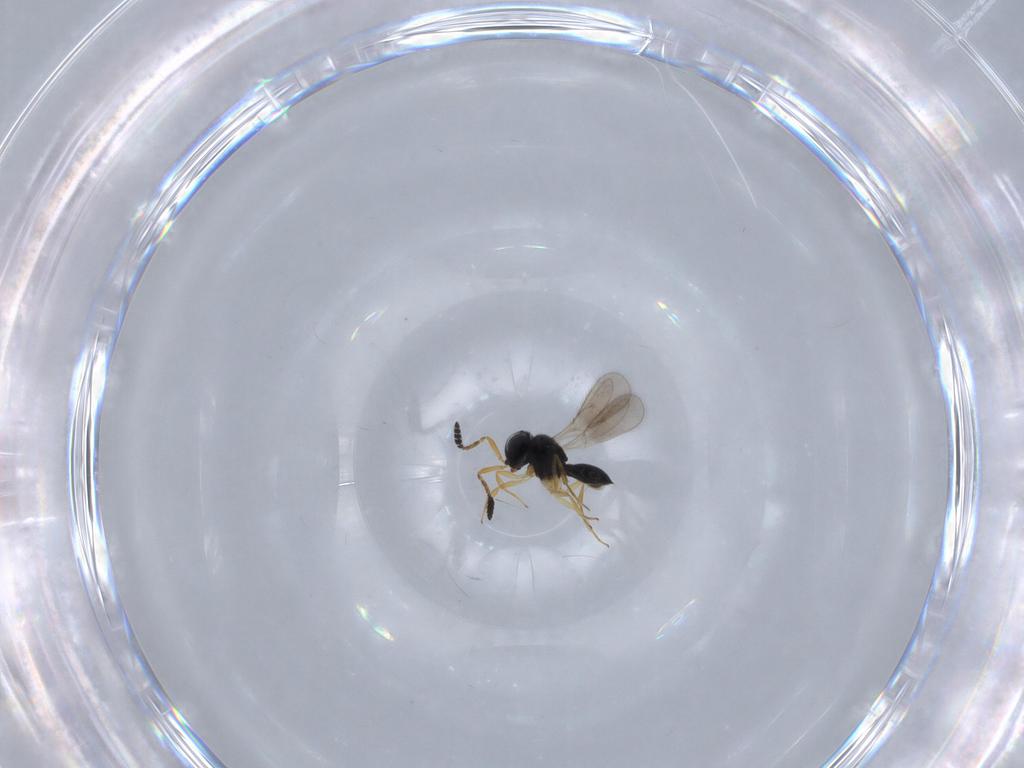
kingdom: Animalia
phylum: Arthropoda
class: Insecta
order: Hymenoptera
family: Scelionidae
